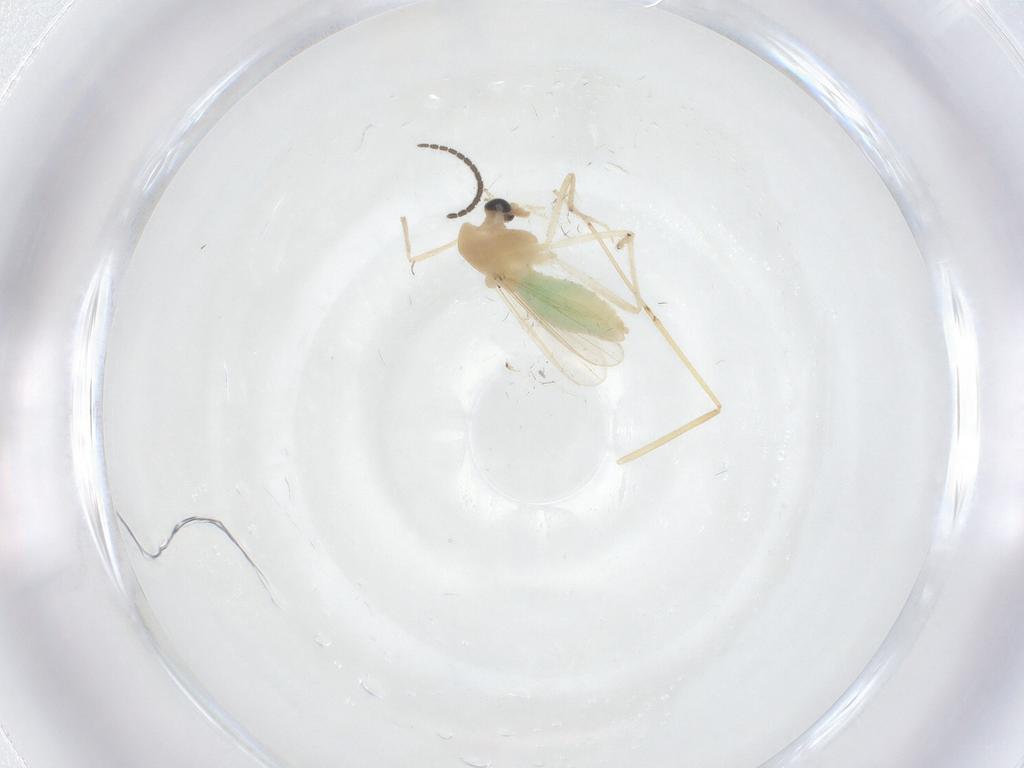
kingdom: Animalia
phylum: Arthropoda
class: Insecta
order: Diptera
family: Chironomidae
